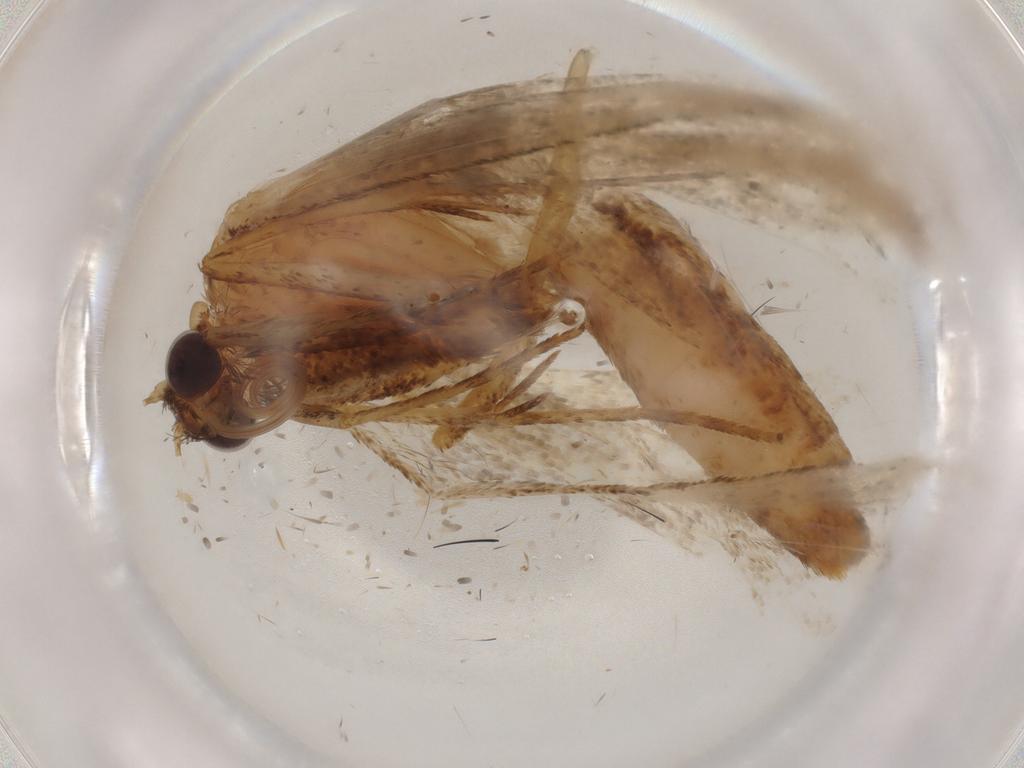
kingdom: Animalia
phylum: Arthropoda
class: Insecta
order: Lepidoptera
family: Erebidae
